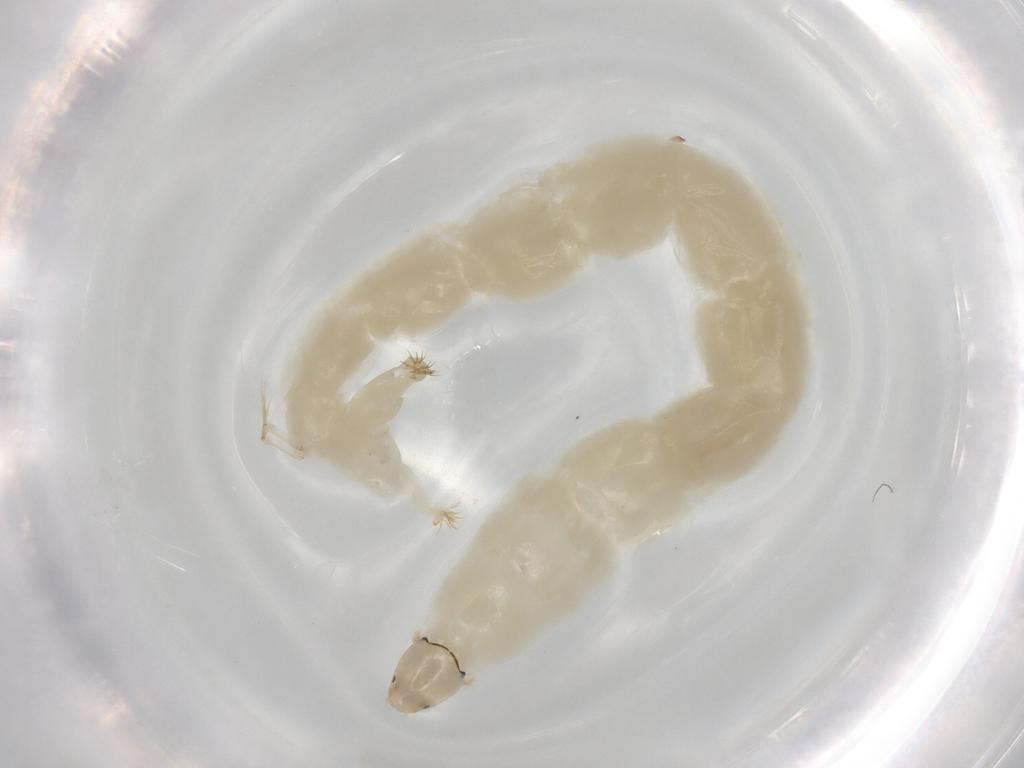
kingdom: Animalia
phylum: Arthropoda
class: Insecta
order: Diptera
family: Chironomidae
